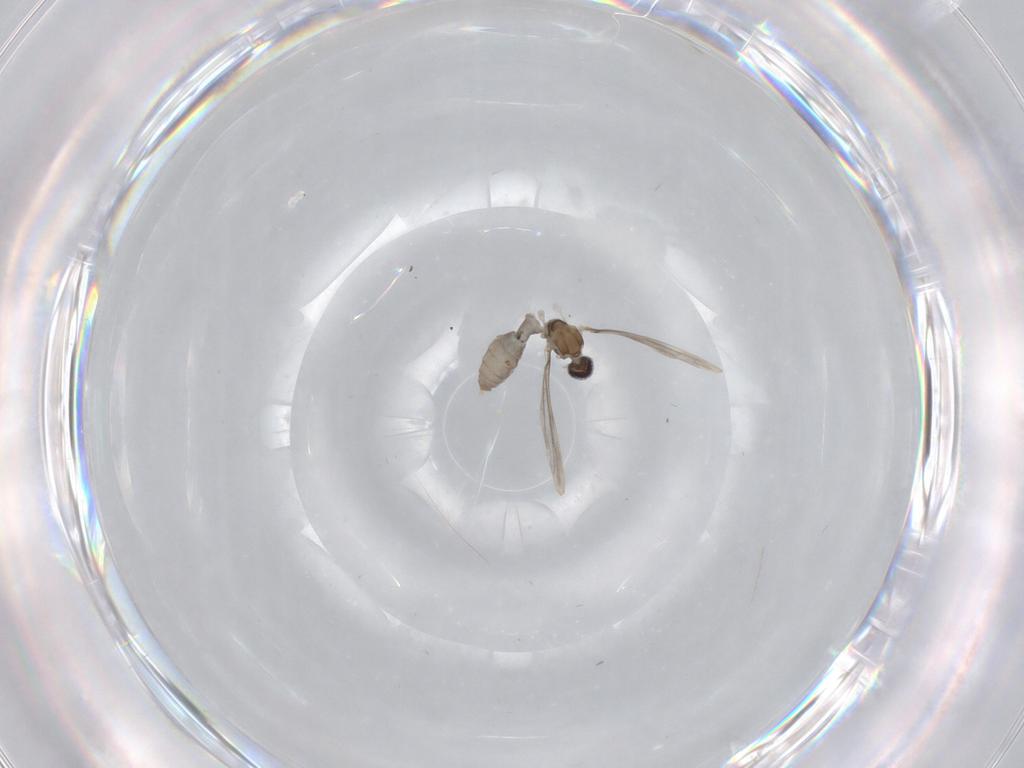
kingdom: Animalia
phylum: Arthropoda
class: Insecta
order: Diptera
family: Cecidomyiidae
